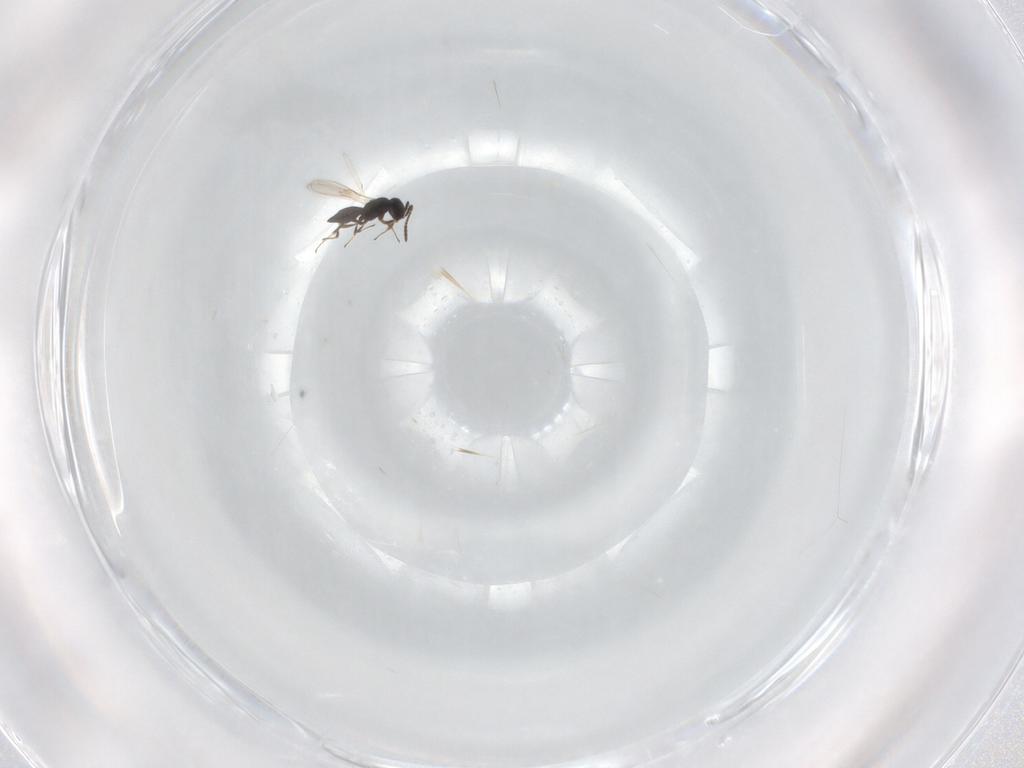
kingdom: Animalia
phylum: Arthropoda
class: Insecta
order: Hymenoptera
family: Scelionidae
